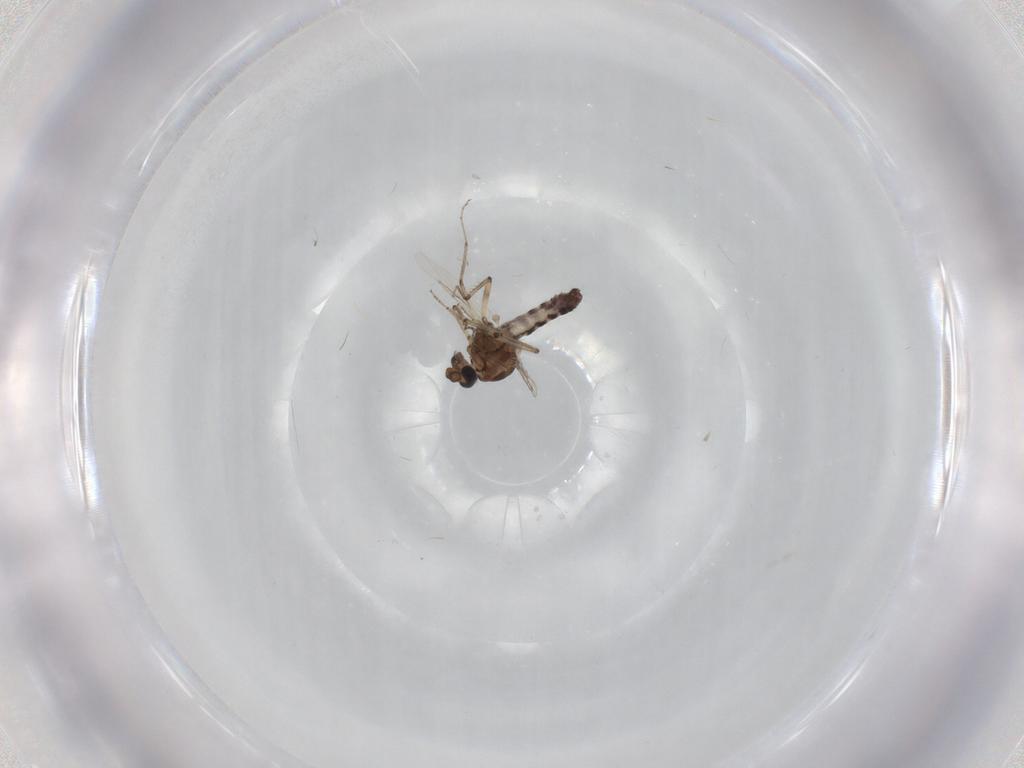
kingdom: Animalia
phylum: Arthropoda
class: Insecta
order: Diptera
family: Ceratopogonidae
